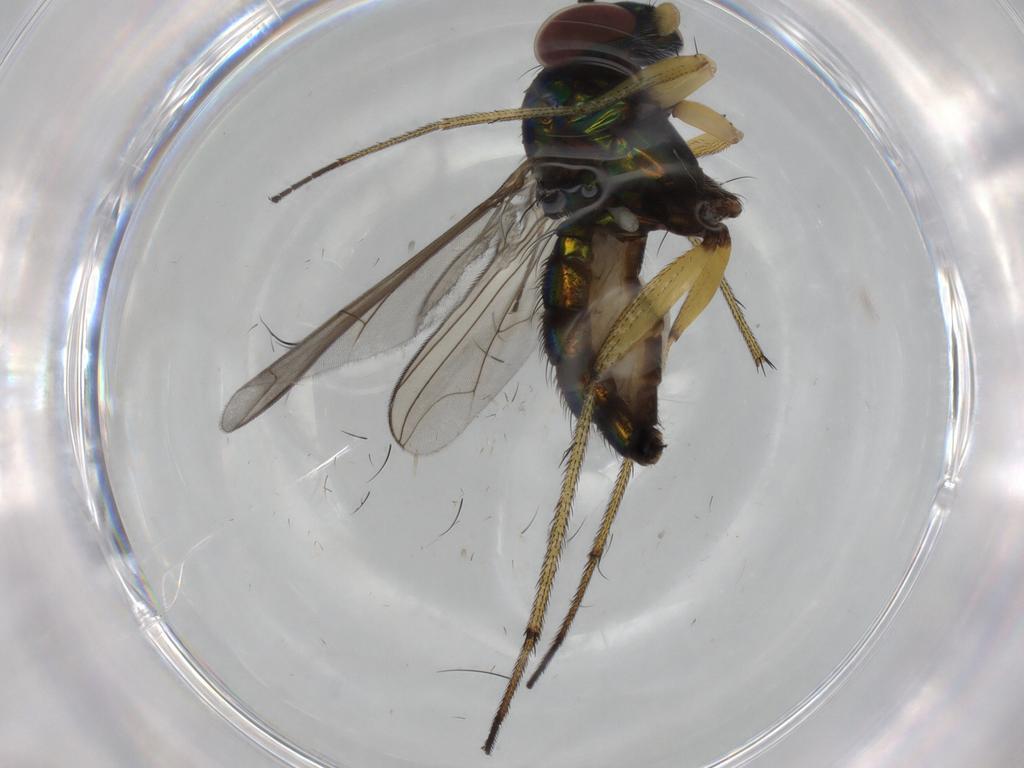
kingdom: Animalia
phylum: Arthropoda
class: Insecta
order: Diptera
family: Dolichopodidae
